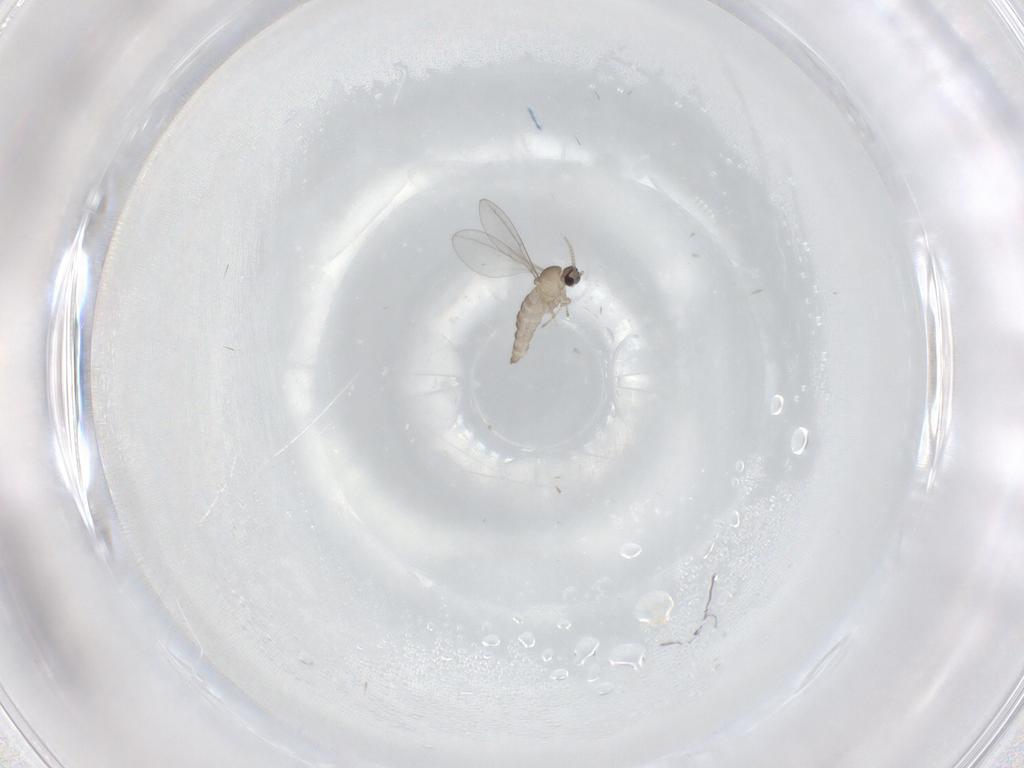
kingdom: Animalia
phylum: Arthropoda
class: Insecta
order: Diptera
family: Cecidomyiidae
